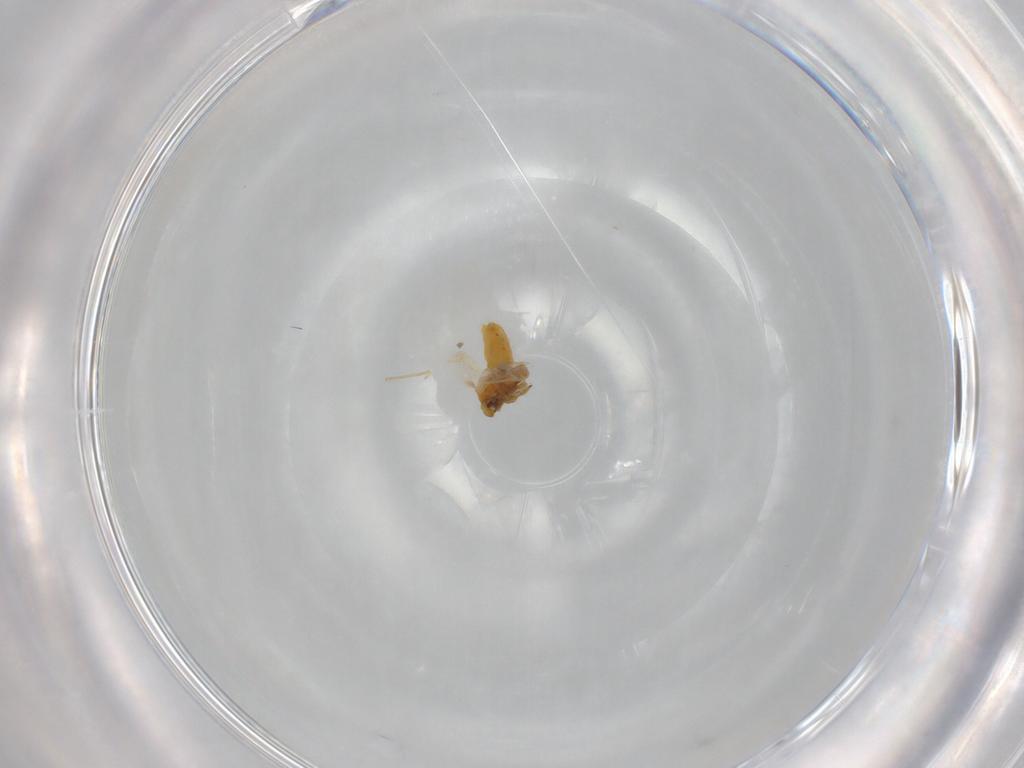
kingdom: Animalia
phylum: Arthropoda
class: Insecta
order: Hemiptera
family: Aleyrodidae
